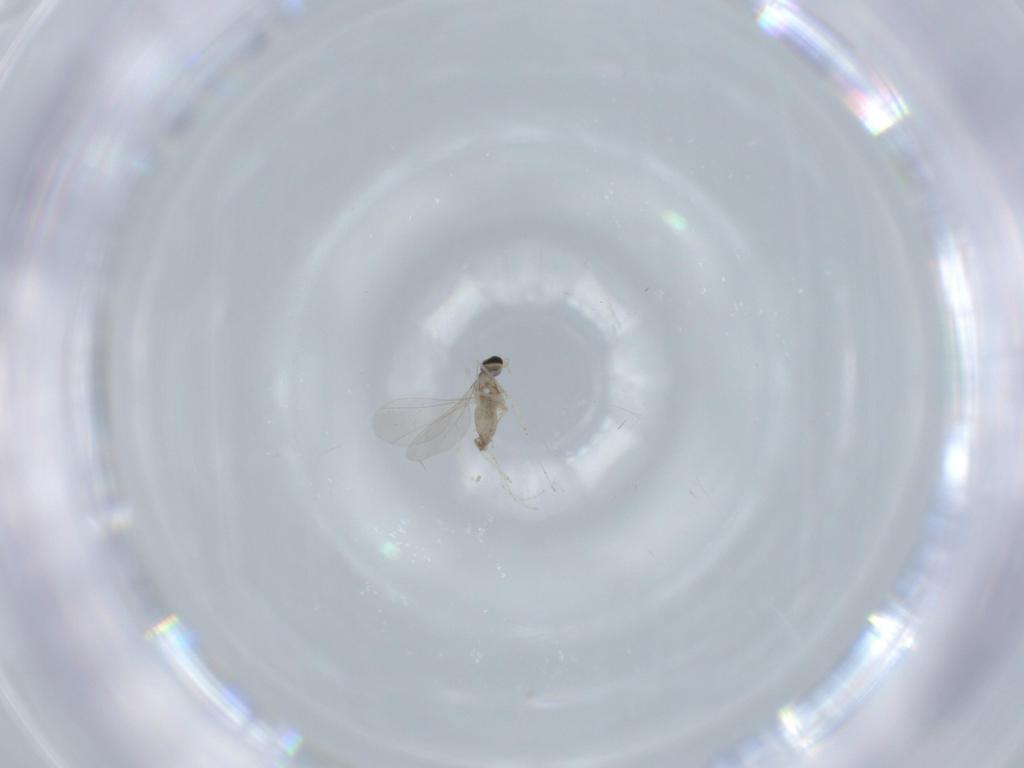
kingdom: Animalia
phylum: Arthropoda
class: Insecta
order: Diptera
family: Cecidomyiidae
